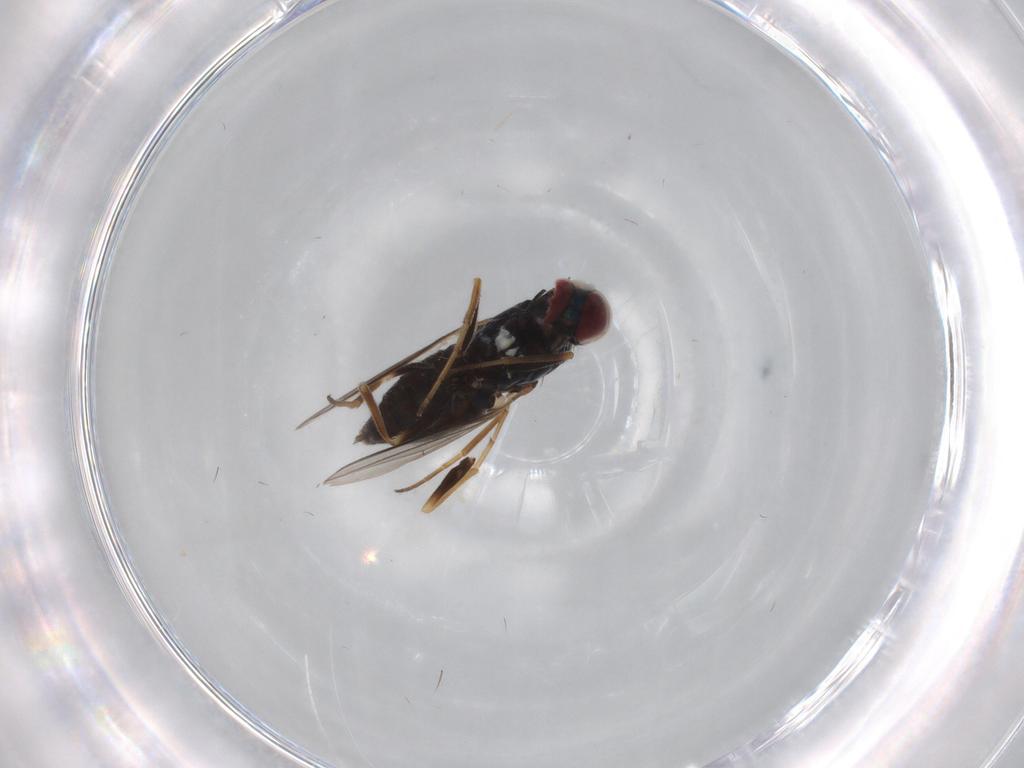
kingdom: Animalia
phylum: Arthropoda
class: Insecta
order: Diptera
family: Dolichopodidae
